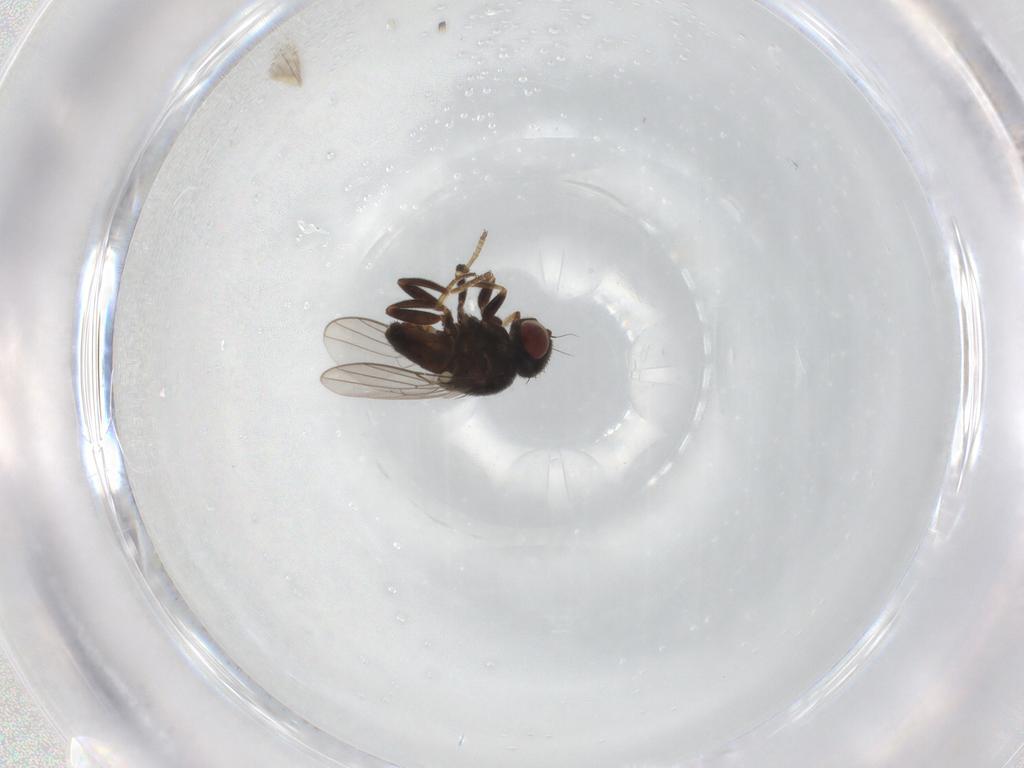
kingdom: Animalia
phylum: Arthropoda
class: Insecta
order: Diptera
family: Chloropidae
